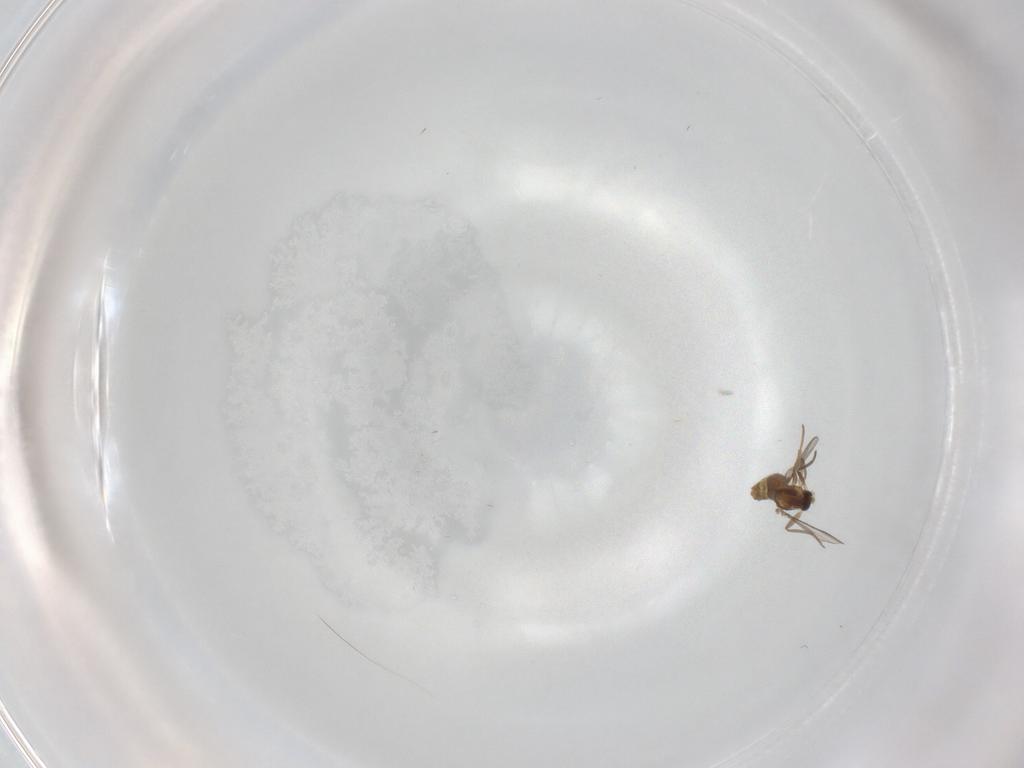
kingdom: Animalia
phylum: Arthropoda
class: Insecta
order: Diptera
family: Chironomidae
